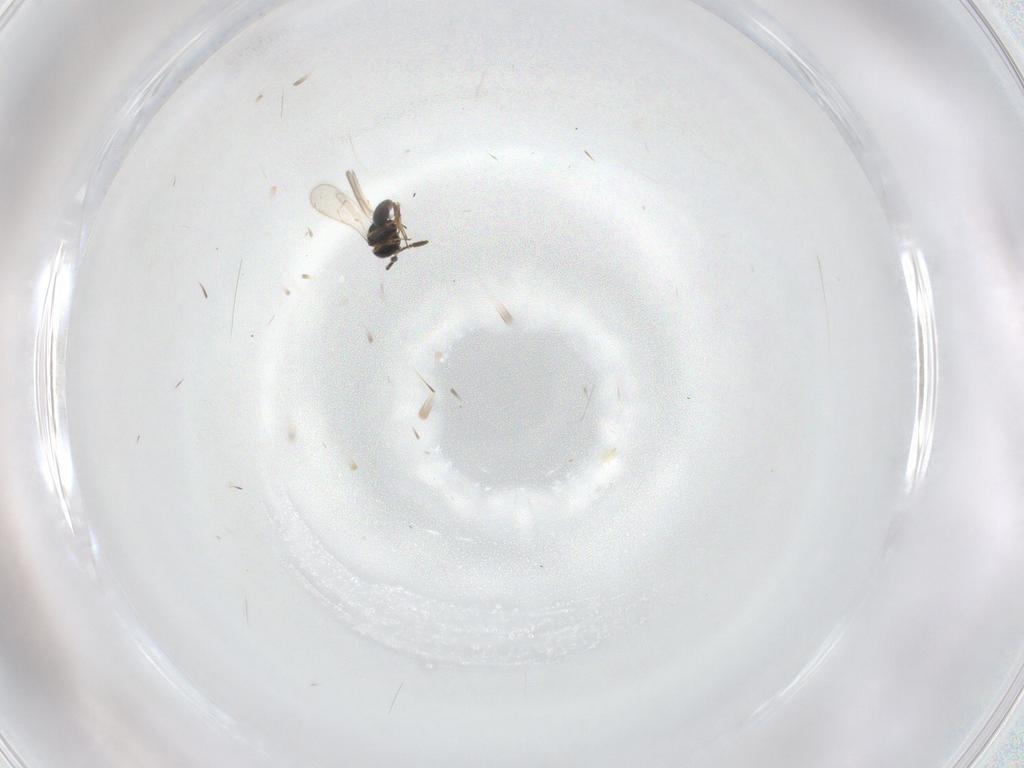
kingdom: Animalia
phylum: Arthropoda
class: Insecta
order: Hymenoptera
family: Scelionidae
